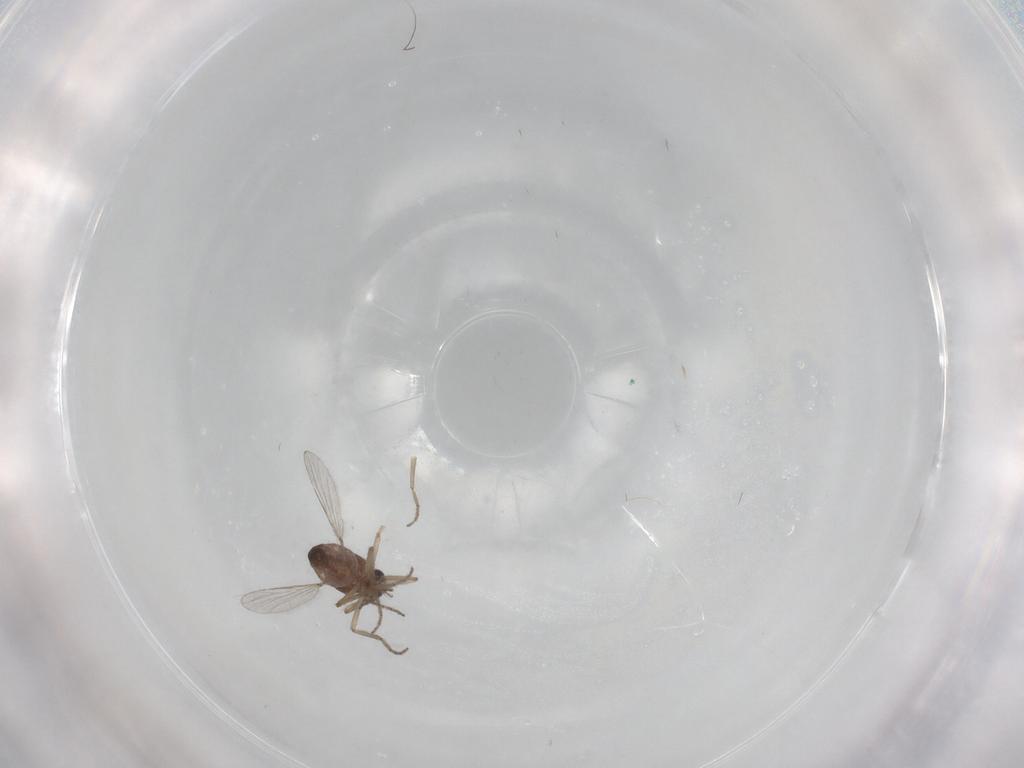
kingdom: Animalia
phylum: Arthropoda
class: Insecta
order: Diptera
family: Ceratopogonidae
